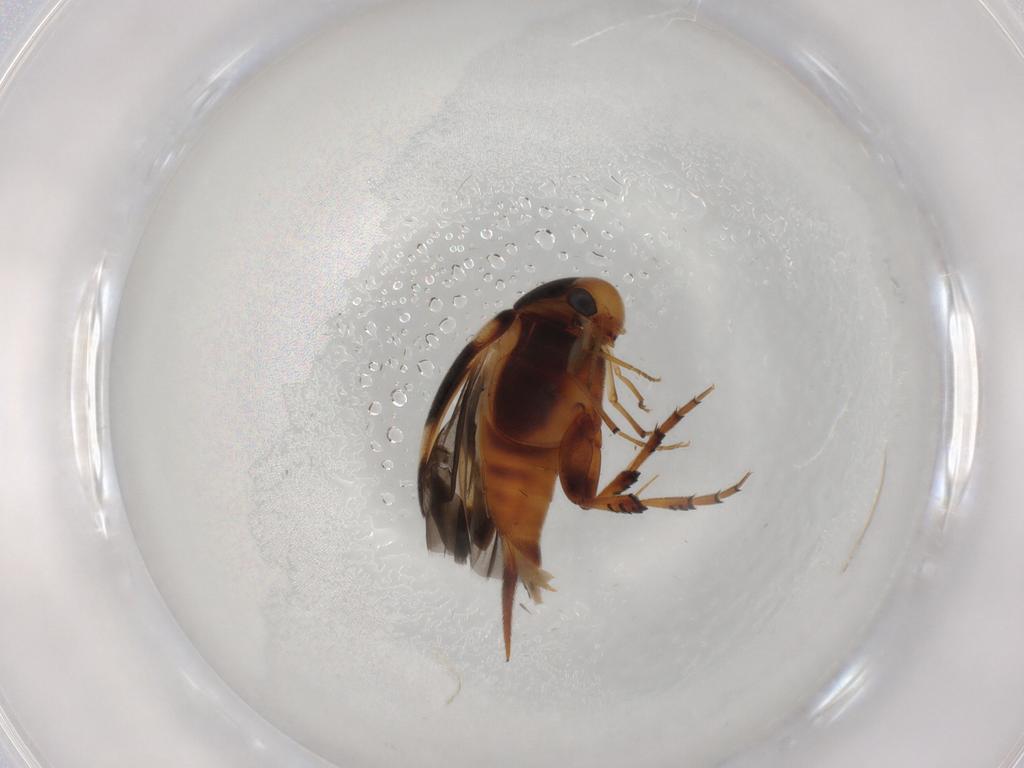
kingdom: Animalia
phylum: Arthropoda
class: Insecta
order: Coleoptera
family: Mordellidae
